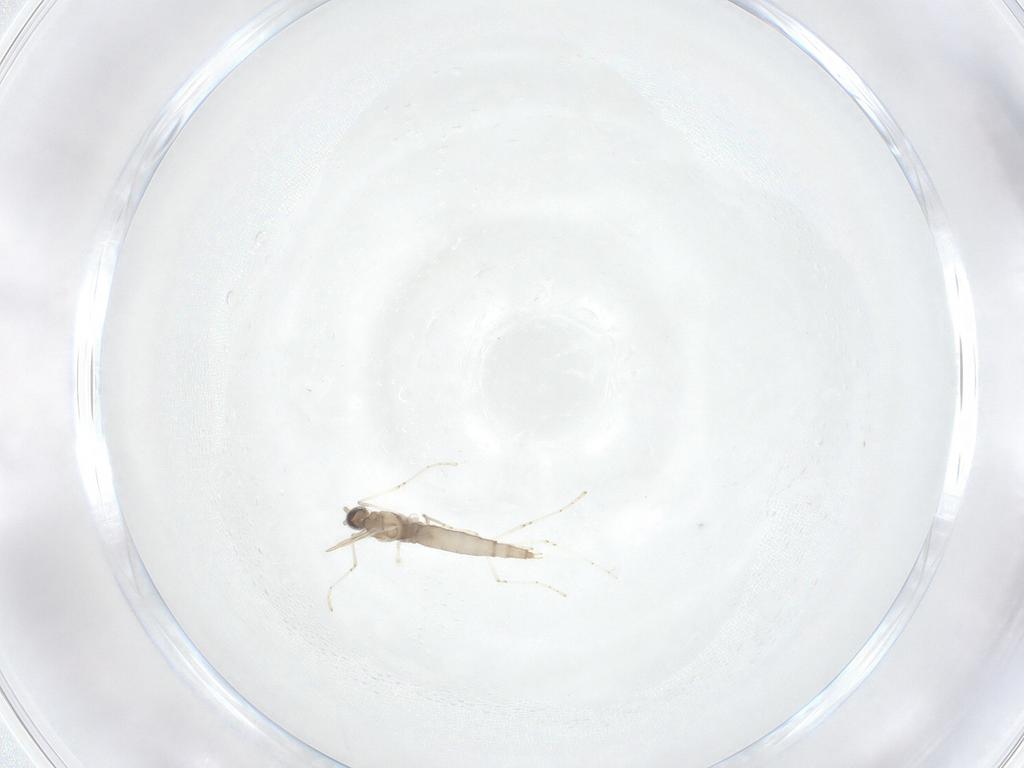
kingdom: Animalia
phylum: Arthropoda
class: Insecta
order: Diptera
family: Cecidomyiidae
